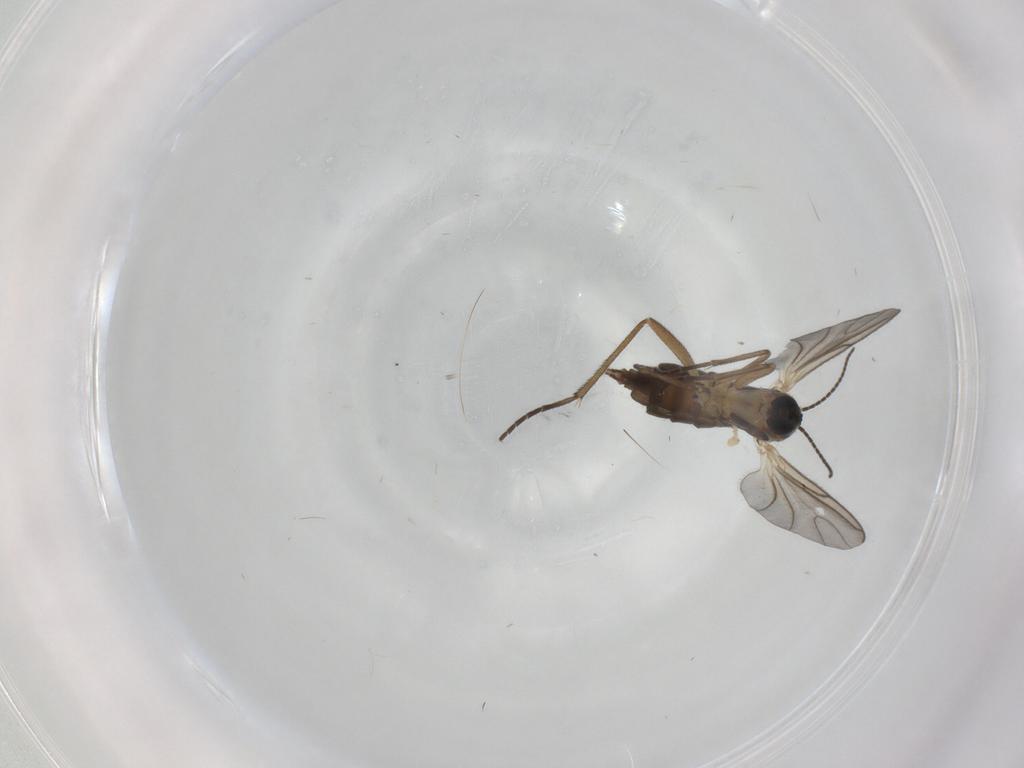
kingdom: Animalia
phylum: Arthropoda
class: Insecta
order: Diptera
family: Sciaridae
